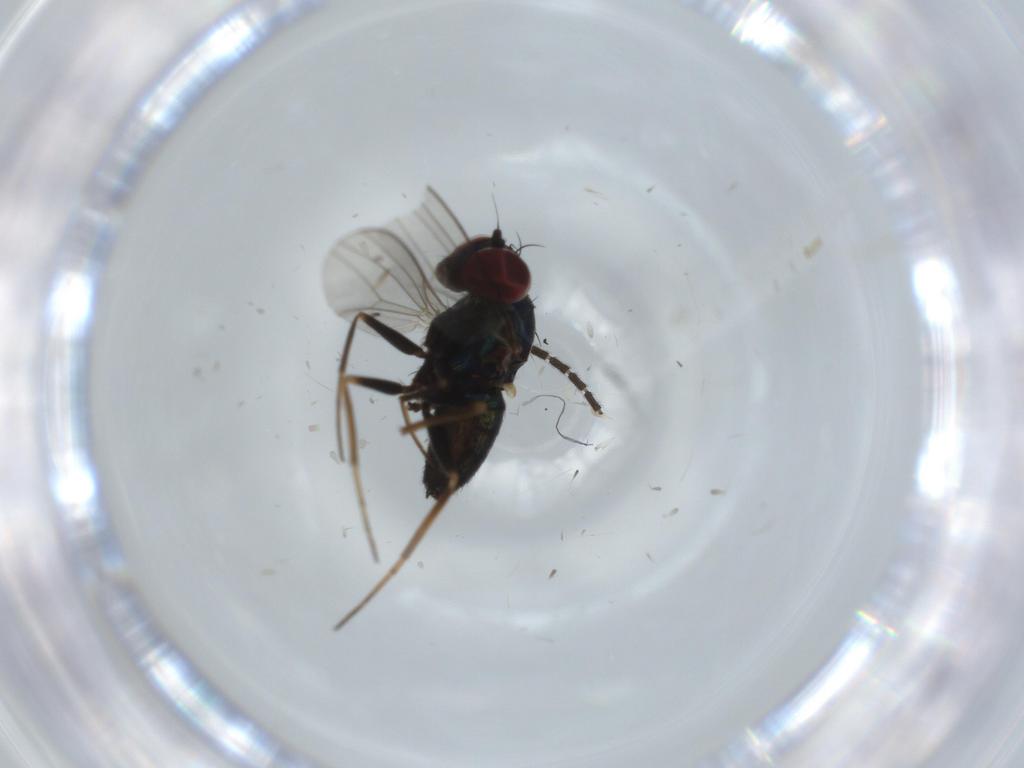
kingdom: Animalia
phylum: Arthropoda
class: Insecta
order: Diptera
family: Dolichopodidae
